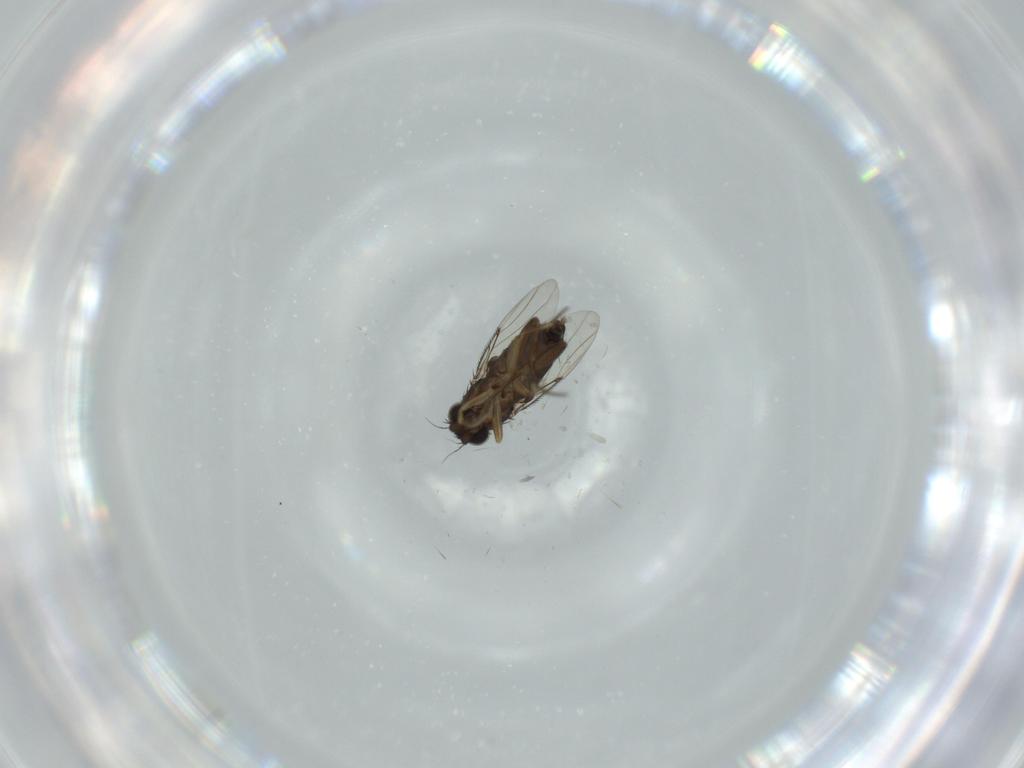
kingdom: Animalia
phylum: Arthropoda
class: Insecta
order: Diptera
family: Phoridae
